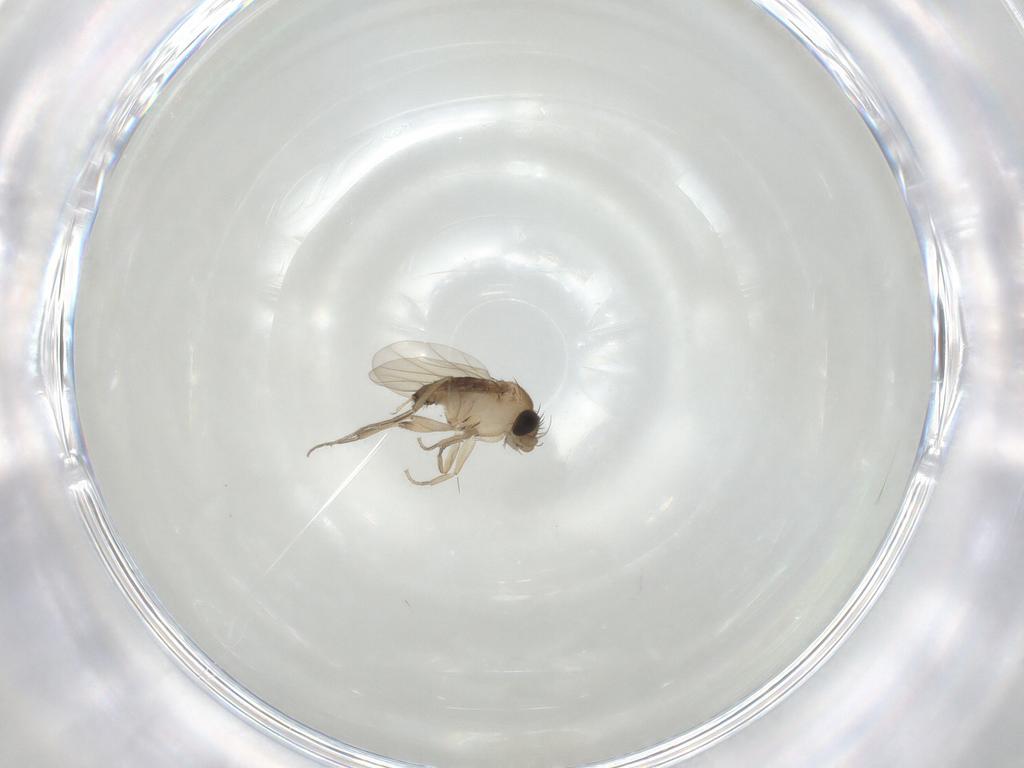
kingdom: Animalia
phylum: Arthropoda
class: Insecta
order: Diptera
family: Phoridae
